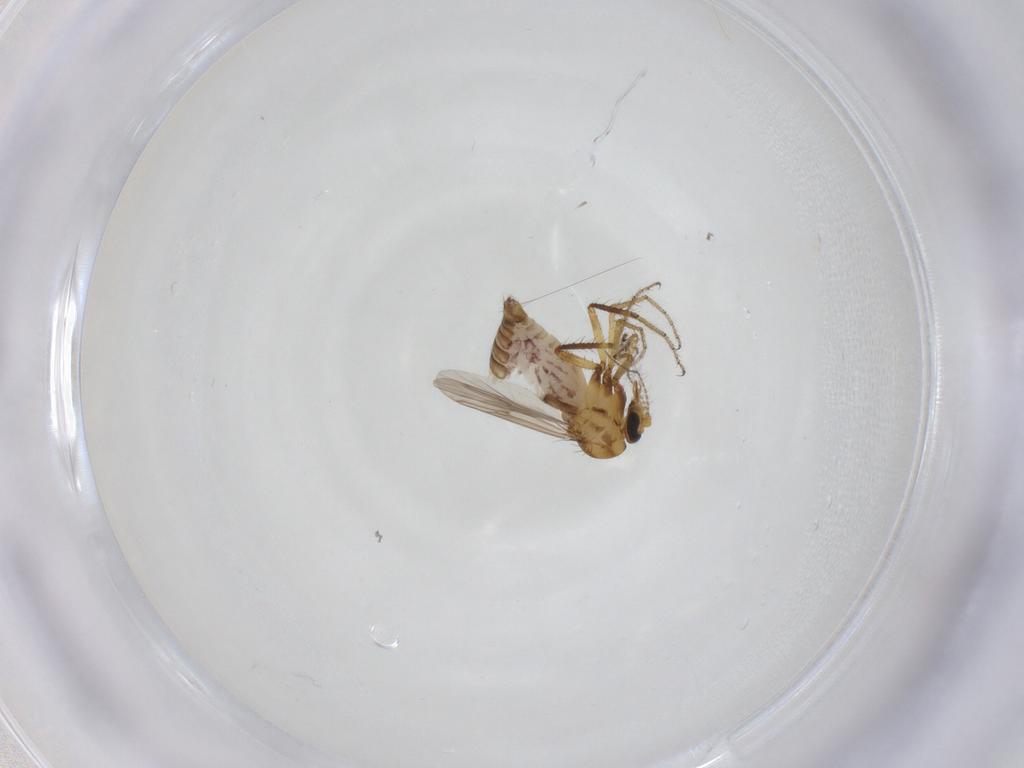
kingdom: Animalia
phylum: Arthropoda
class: Insecta
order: Diptera
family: Ceratopogonidae
